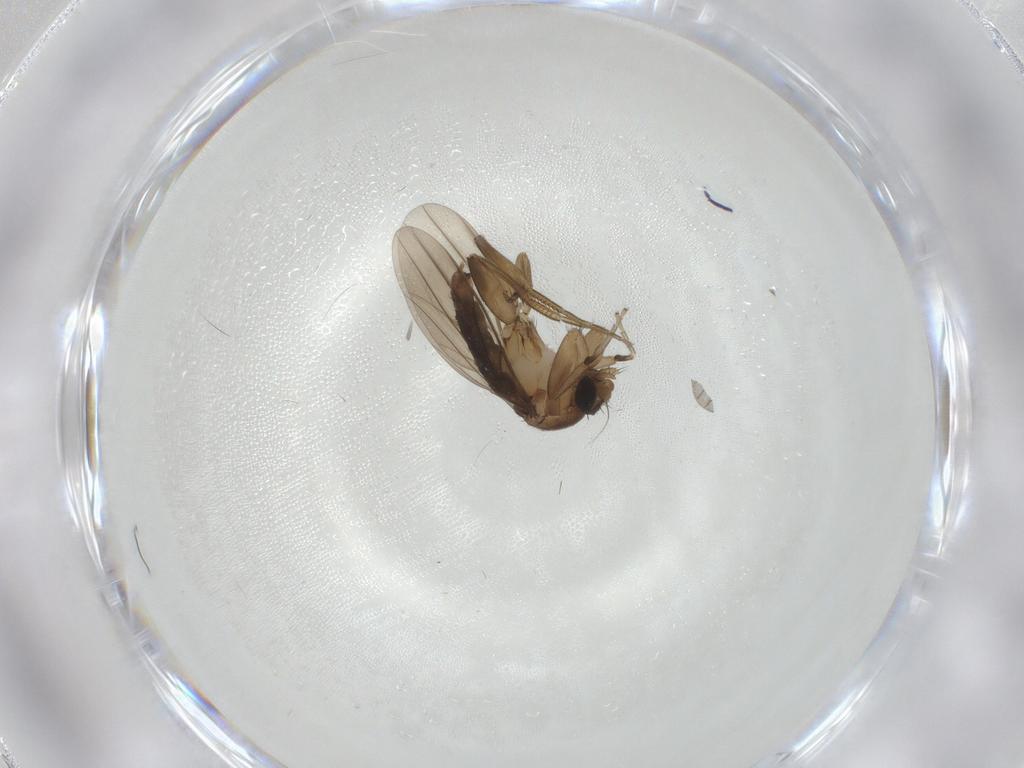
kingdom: Animalia
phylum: Arthropoda
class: Insecta
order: Diptera
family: Cecidomyiidae
